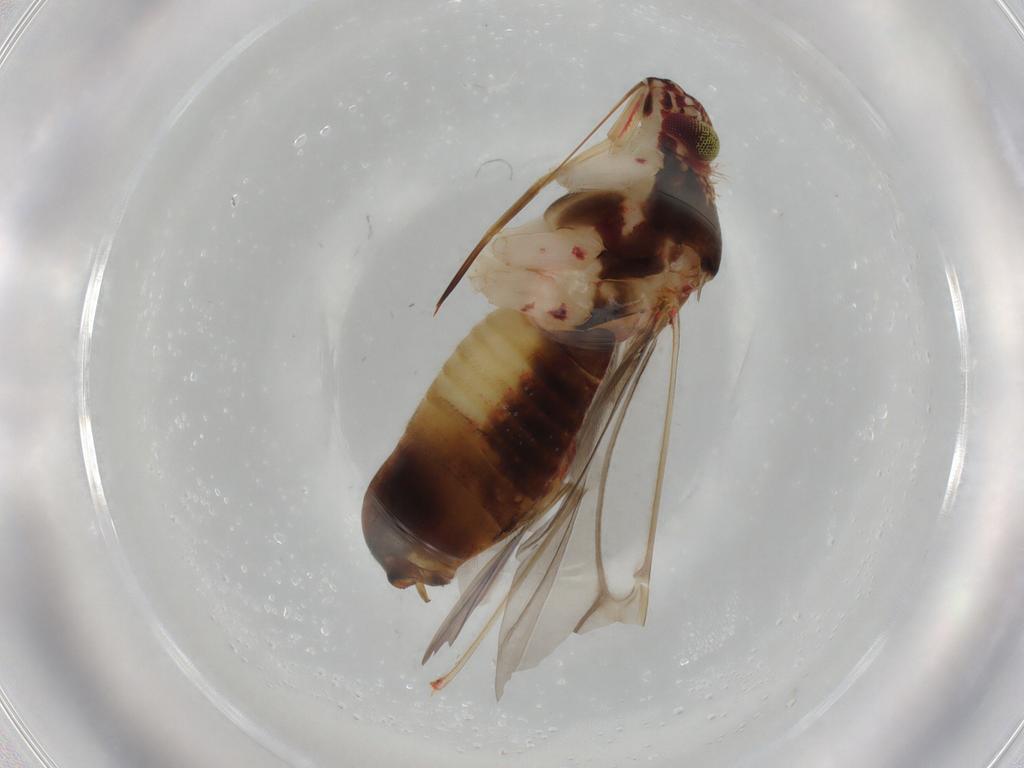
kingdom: Animalia
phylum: Arthropoda
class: Insecta
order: Hemiptera
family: Miridae
